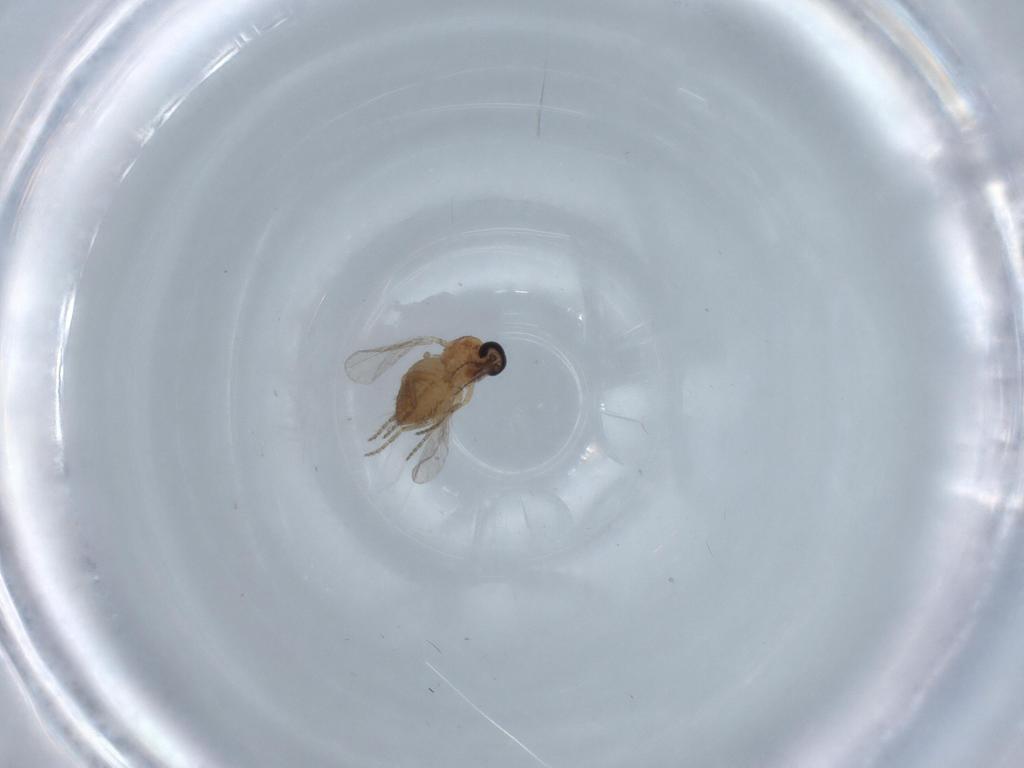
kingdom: Animalia
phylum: Arthropoda
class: Insecta
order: Diptera
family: Ceratopogonidae
